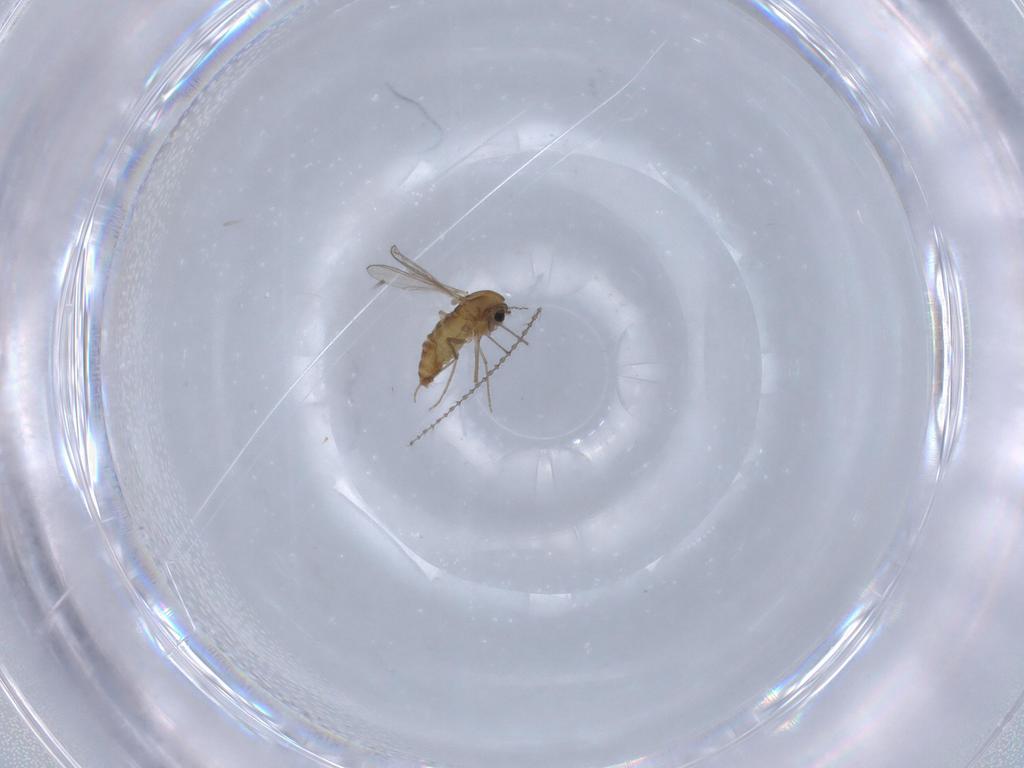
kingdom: Animalia
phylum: Arthropoda
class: Insecta
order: Diptera
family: Chironomidae
